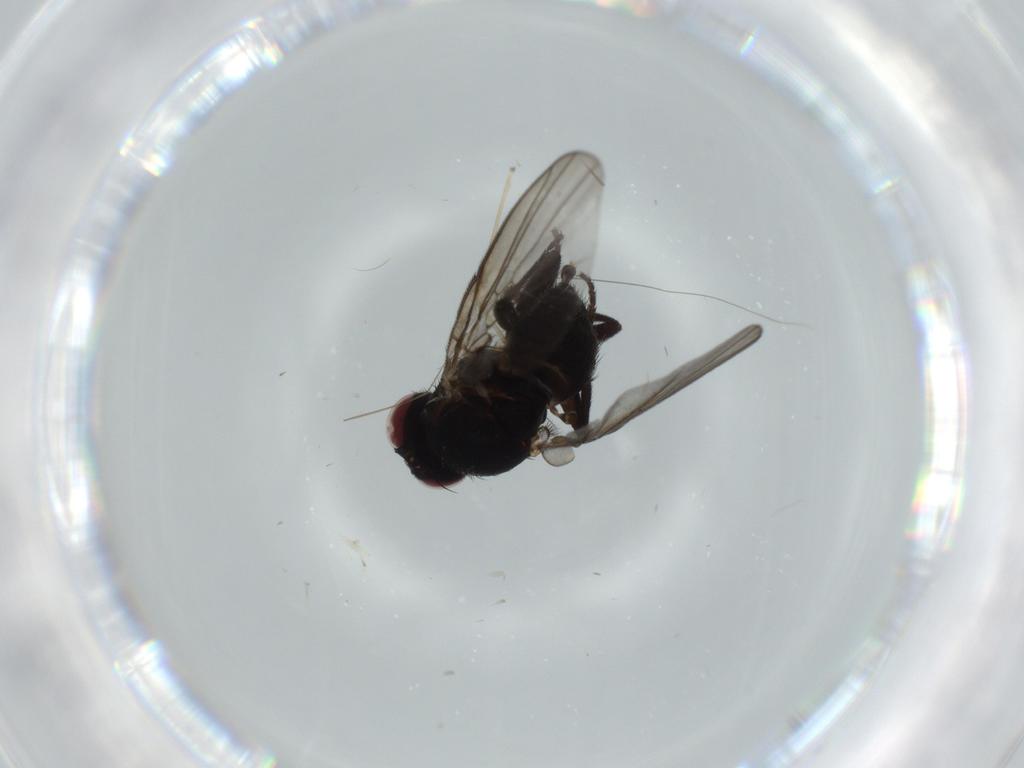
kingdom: Animalia
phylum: Arthropoda
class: Insecta
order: Diptera
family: Agromyzidae
